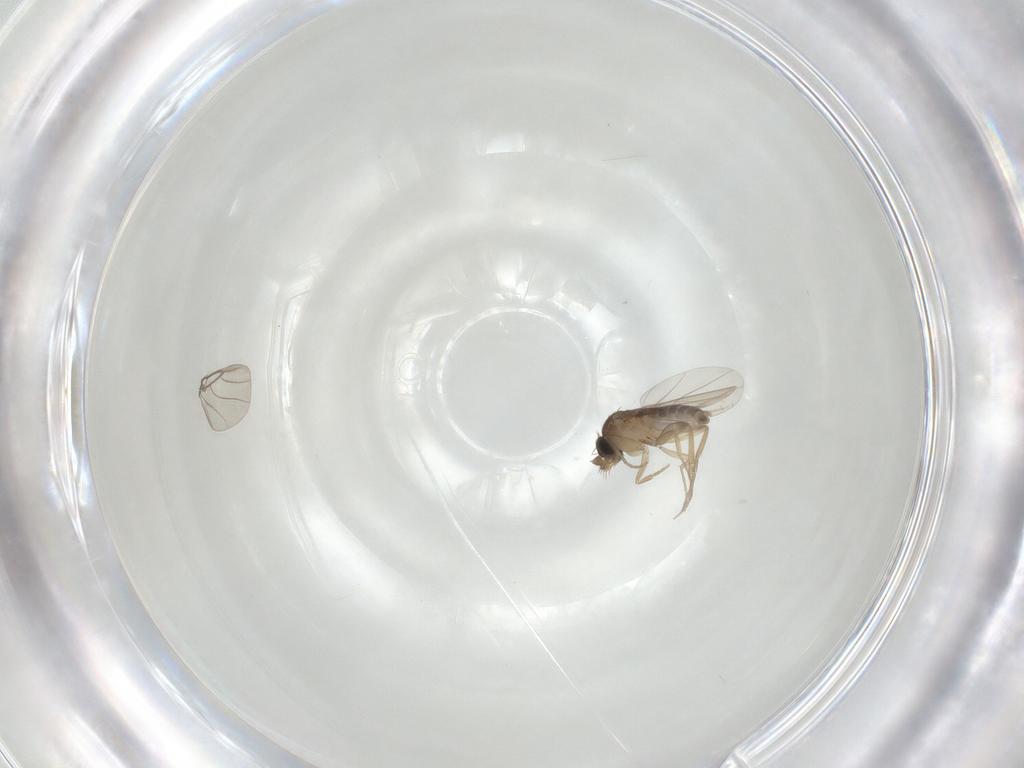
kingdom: Animalia
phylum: Arthropoda
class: Insecta
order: Diptera
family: Phoridae
